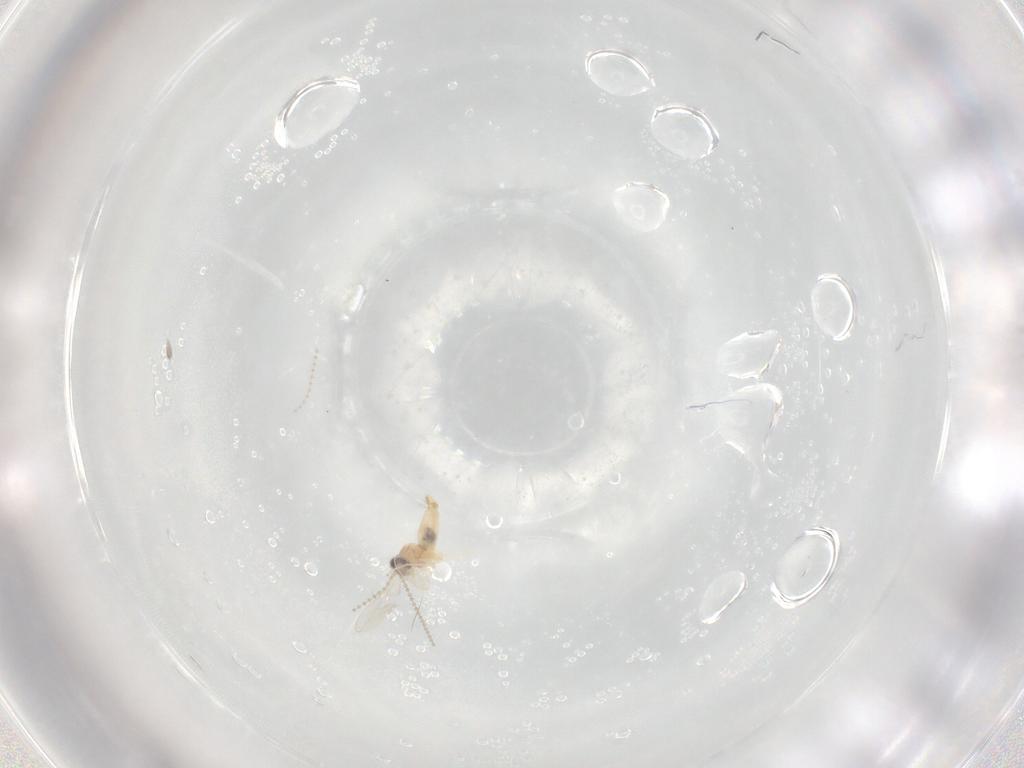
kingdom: Animalia
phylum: Arthropoda
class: Insecta
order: Diptera
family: Cecidomyiidae
